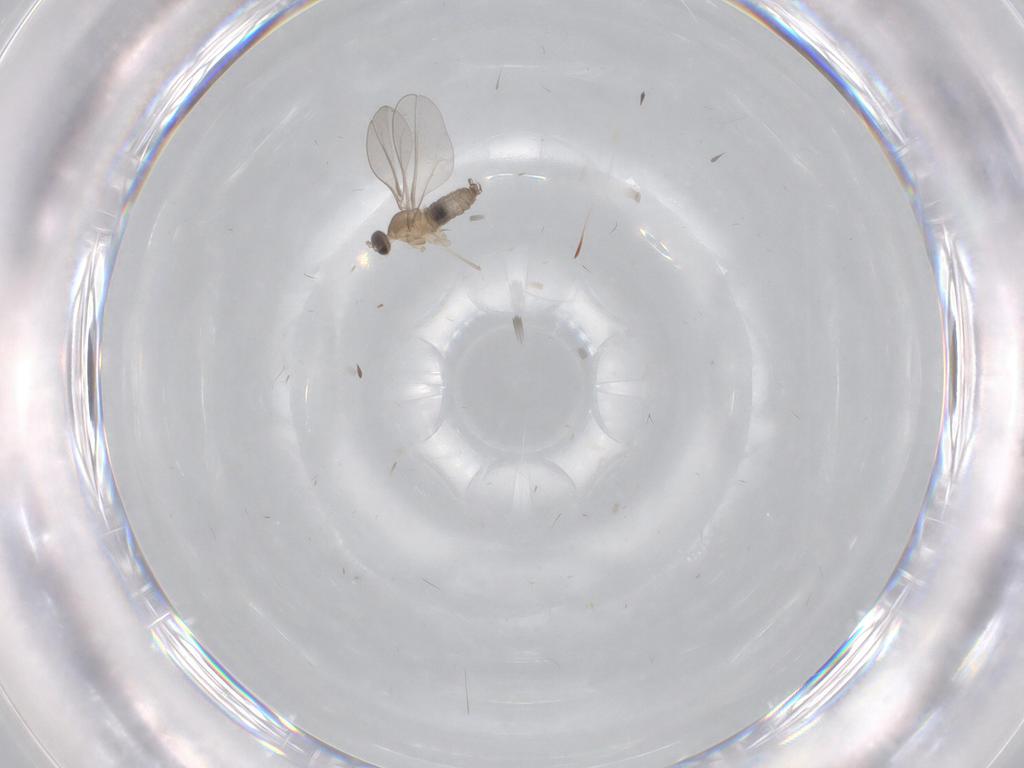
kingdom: Animalia
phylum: Arthropoda
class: Insecta
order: Diptera
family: Cecidomyiidae
